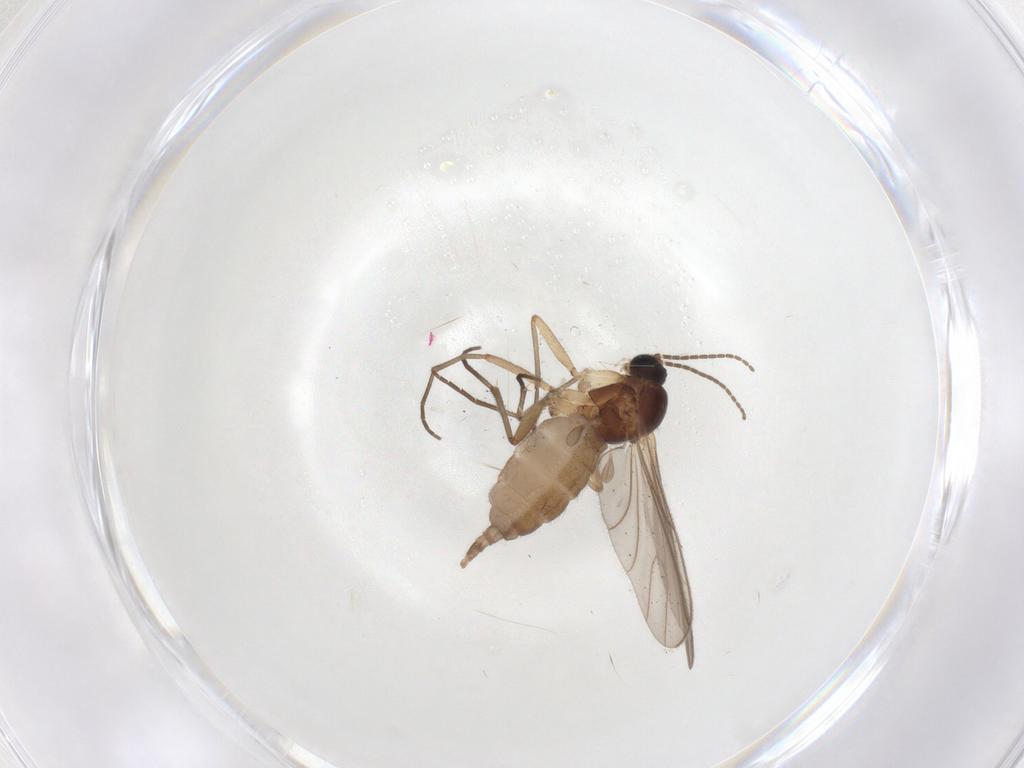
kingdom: Animalia
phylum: Arthropoda
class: Insecta
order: Diptera
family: Sciaridae
